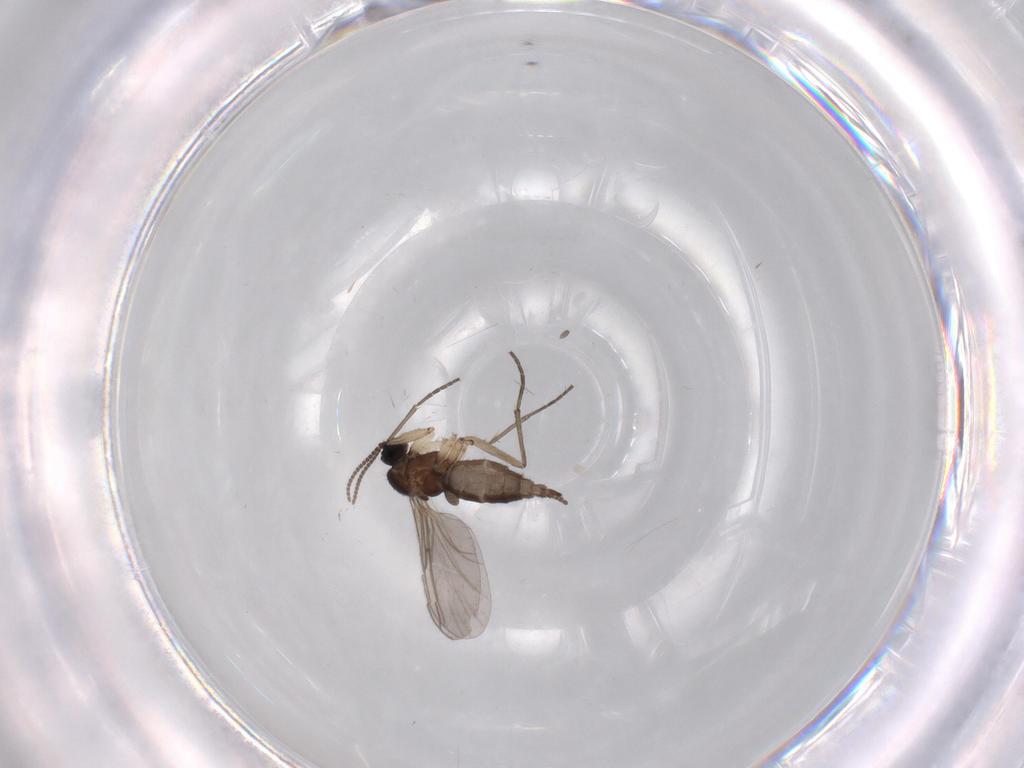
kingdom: Animalia
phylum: Arthropoda
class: Insecta
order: Diptera
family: Sciaridae
